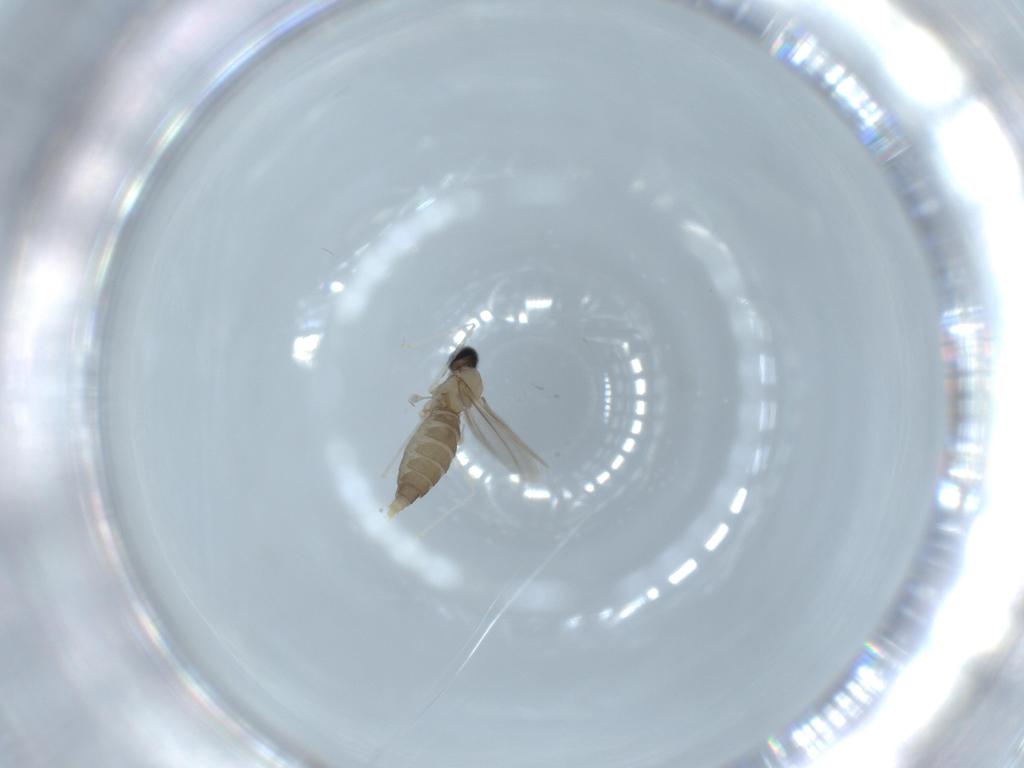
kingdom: Animalia
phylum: Arthropoda
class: Insecta
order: Diptera
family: Cecidomyiidae
